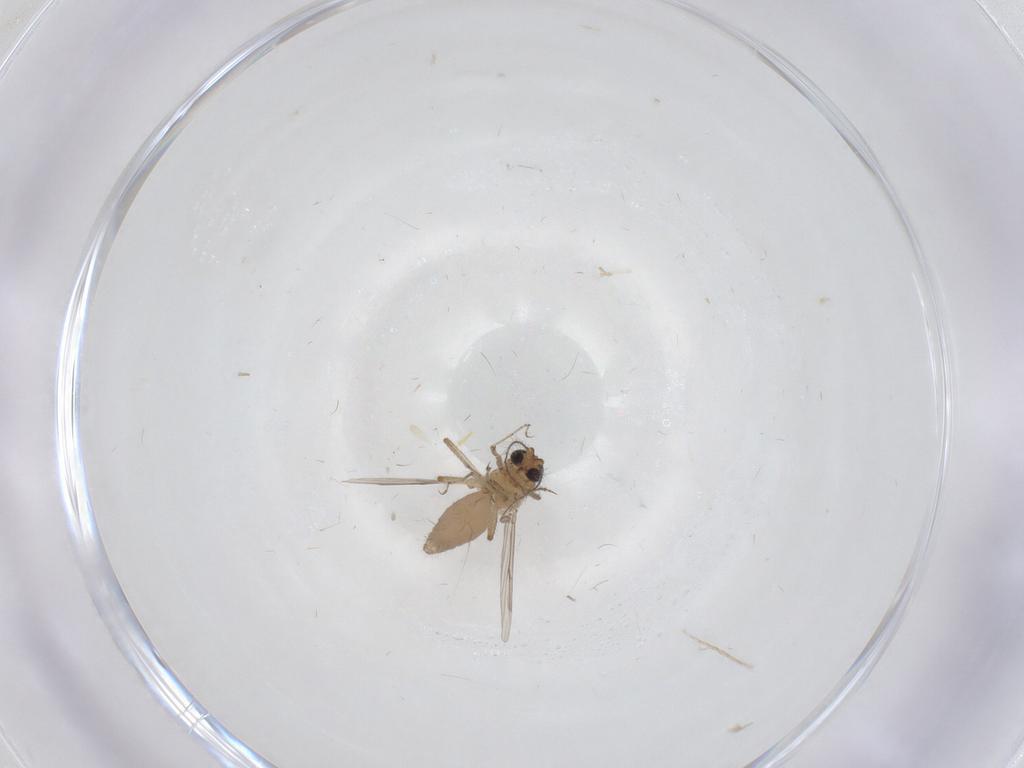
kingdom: Animalia
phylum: Arthropoda
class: Insecta
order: Diptera
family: Ceratopogonidae
